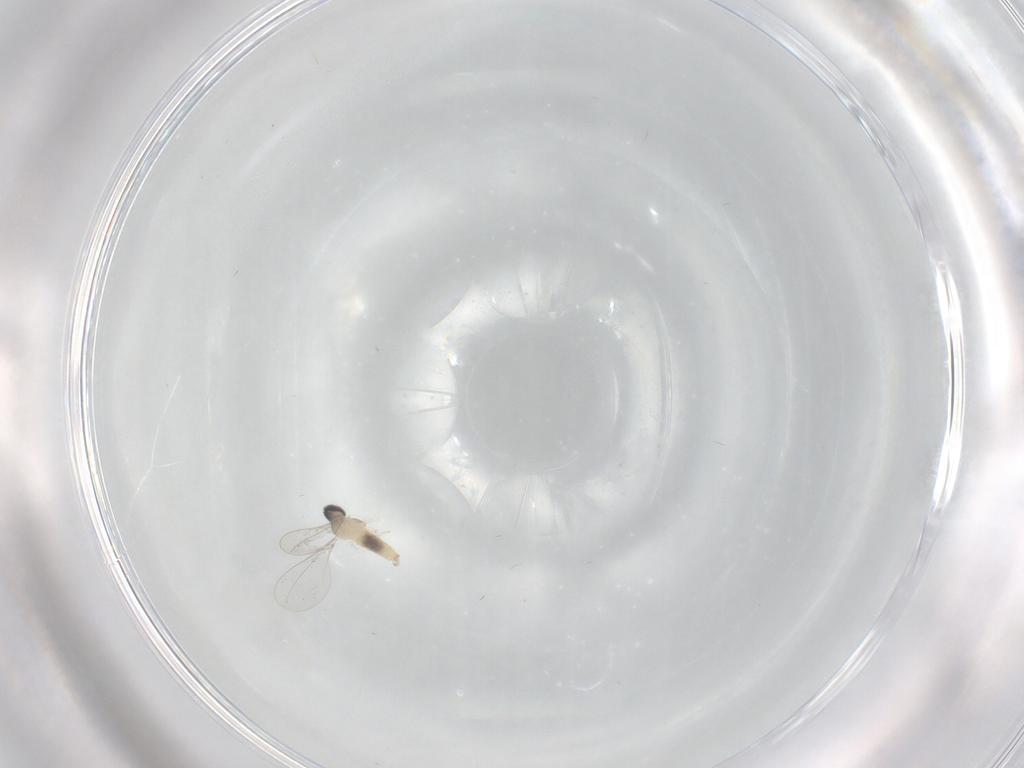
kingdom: Animalia
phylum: Arthropoda
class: Insecta
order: Diptera
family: Cecidomyiidae
